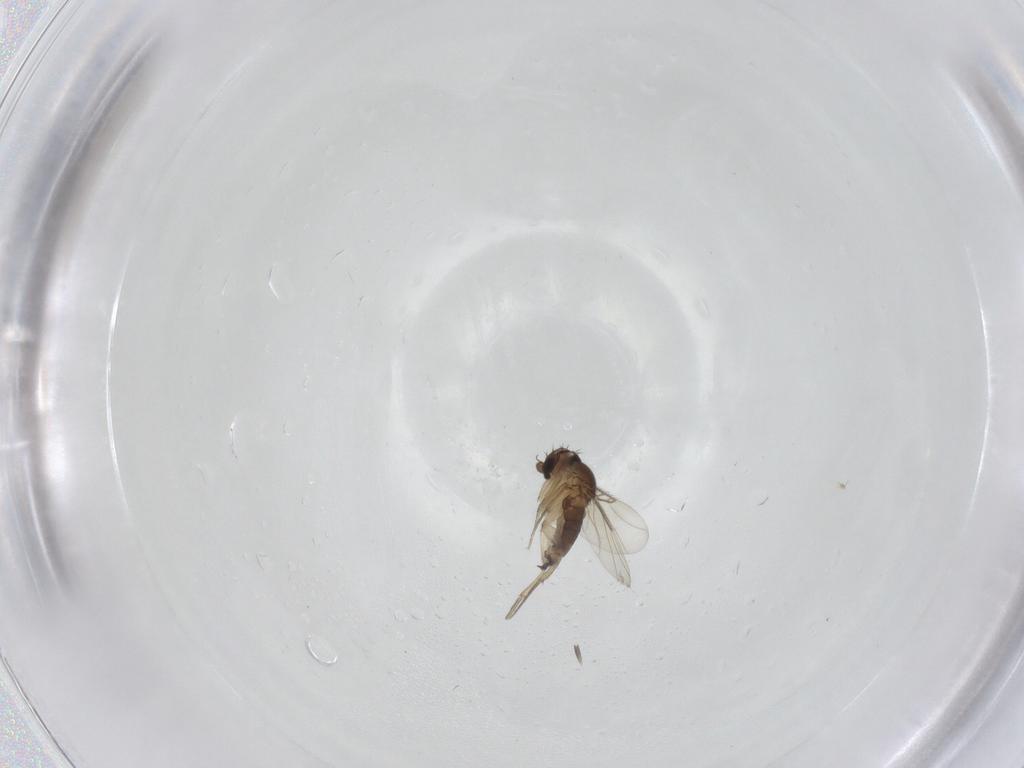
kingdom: Animalia
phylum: Arthropoda
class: Insecta
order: Diptera
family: Phoridae
